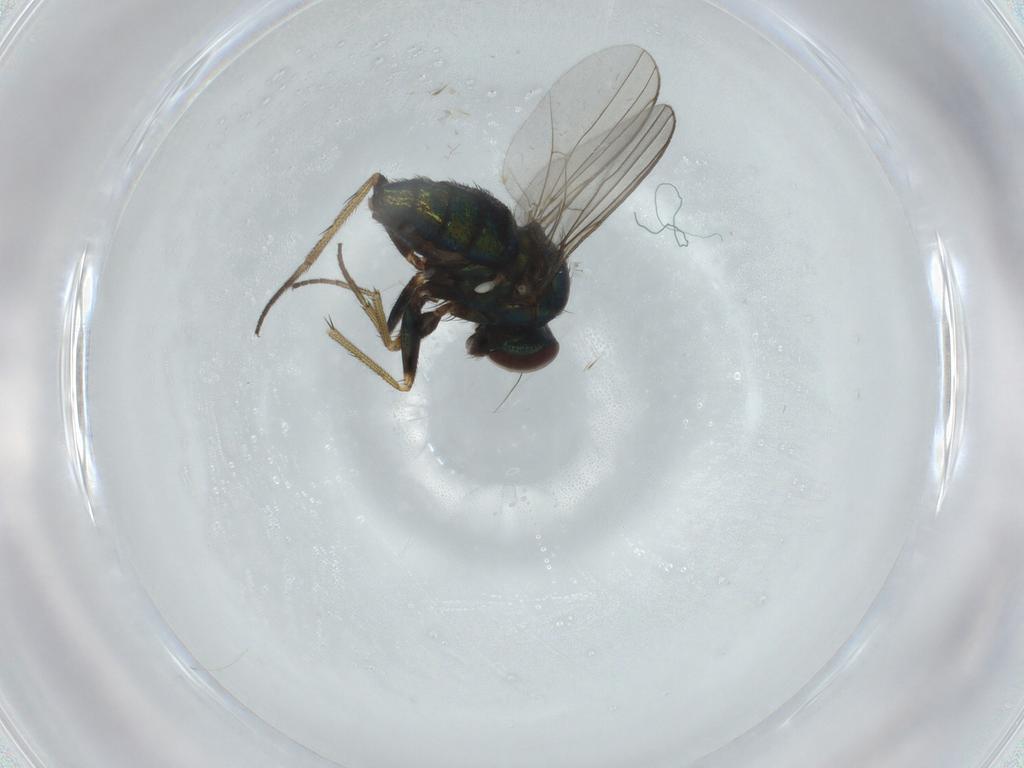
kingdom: Animalia
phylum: Arthropoda
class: Insecta
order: Diptera
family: Dolichopodidae
